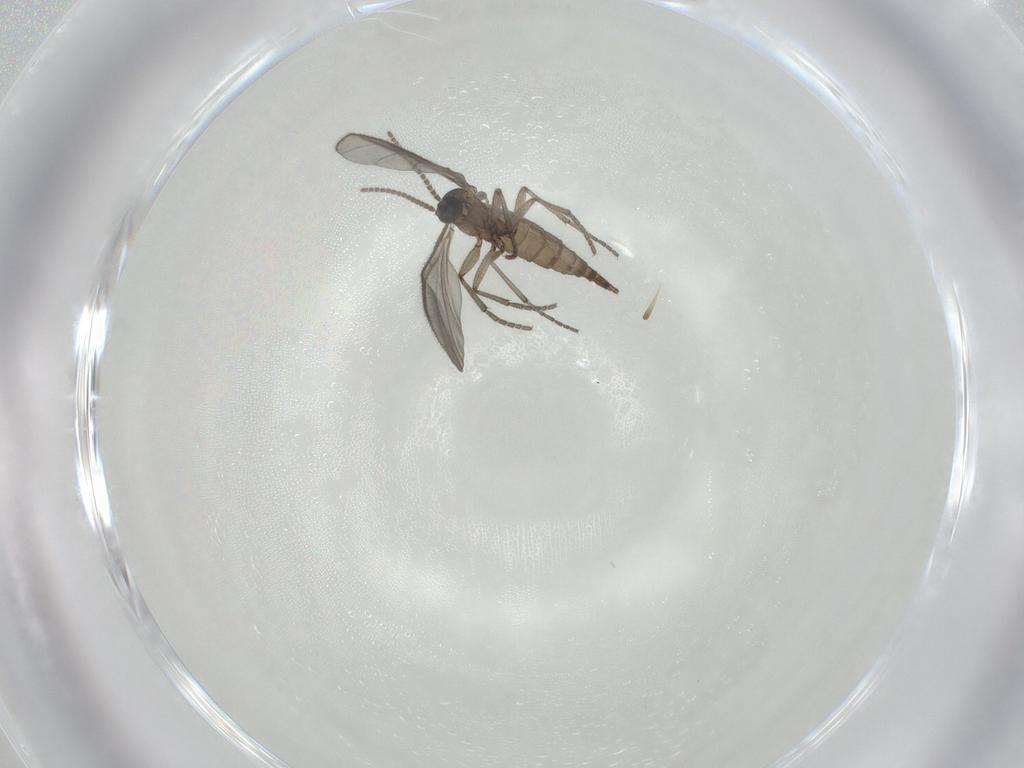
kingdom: Animalia
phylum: Arthropoda
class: Insecta
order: Diptera
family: Sciaridae
